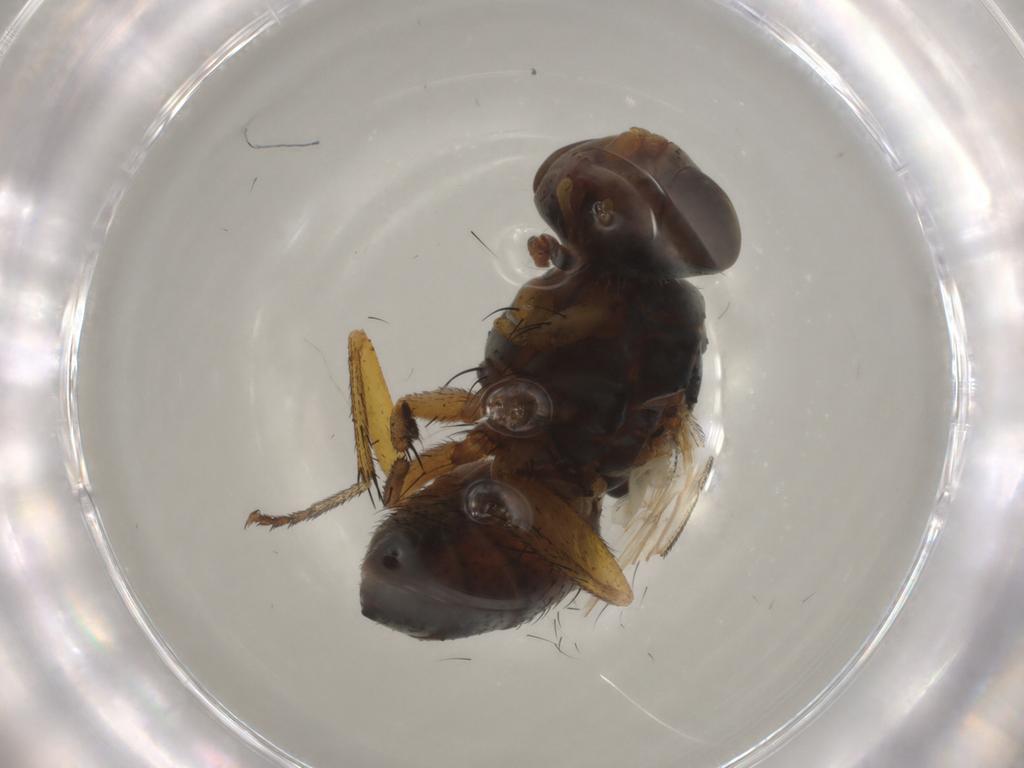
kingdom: Animalia
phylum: Arthropoda
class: Insecta
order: Diptera
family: Sarcophagidae
